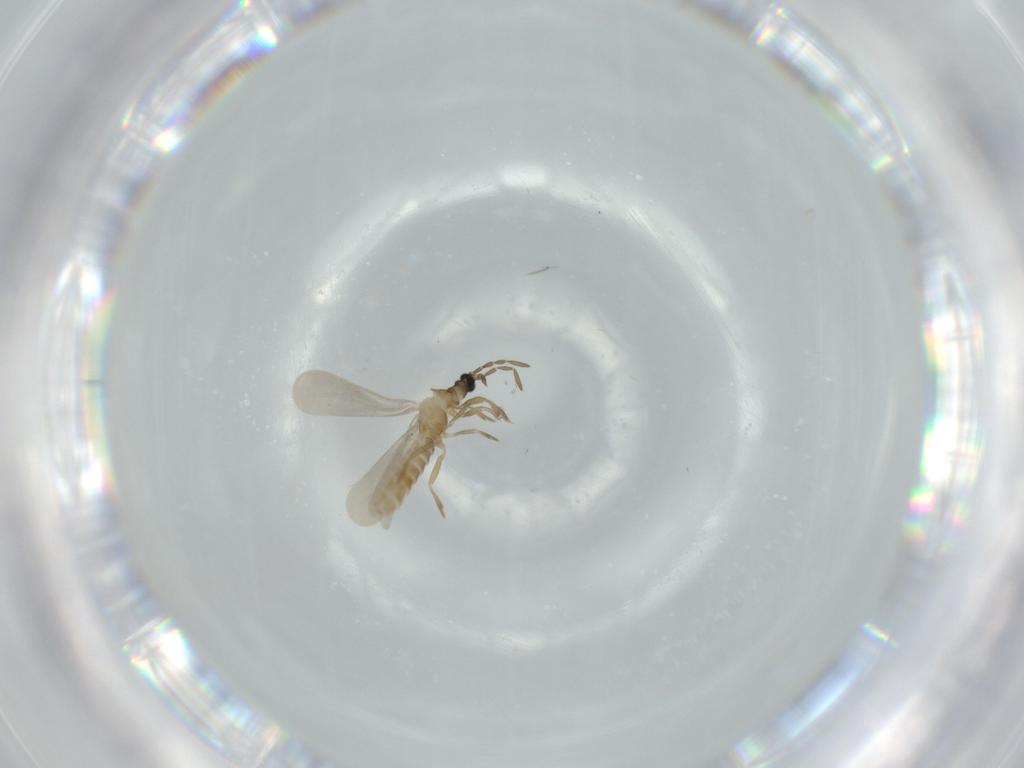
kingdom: Animalia
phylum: Arthropoda
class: Insecta
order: Hemiptera
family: Enicocephalidae
